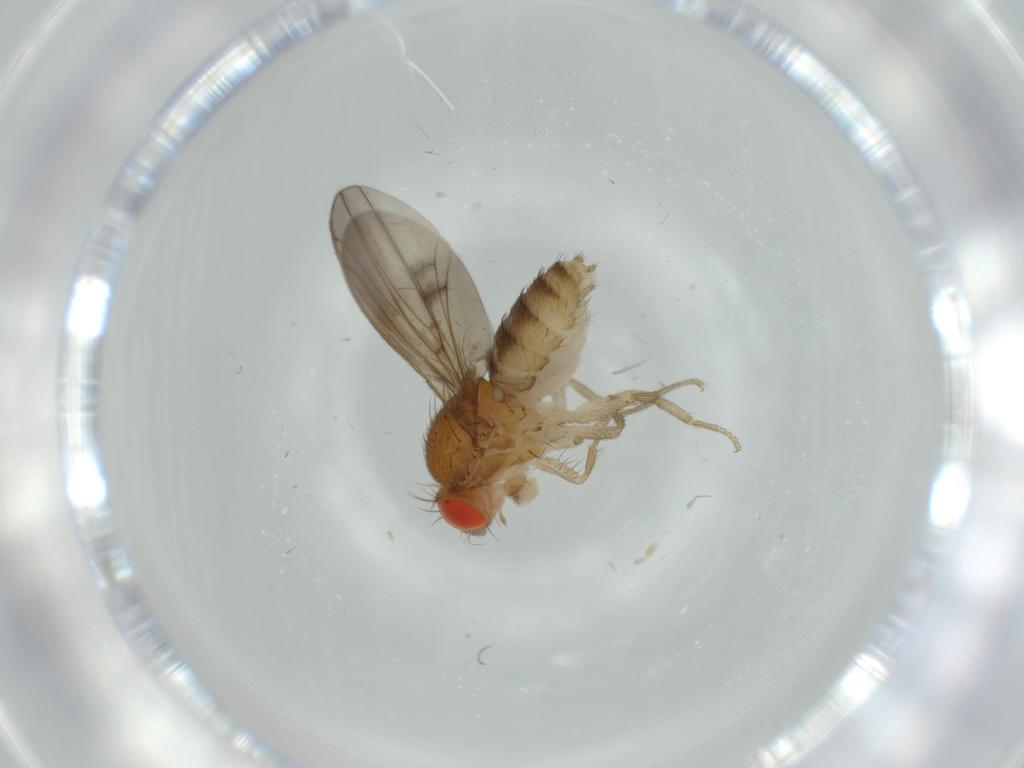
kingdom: Animalia
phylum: Arthropoda
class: Insecta
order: Diptera
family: Drosophilidae
